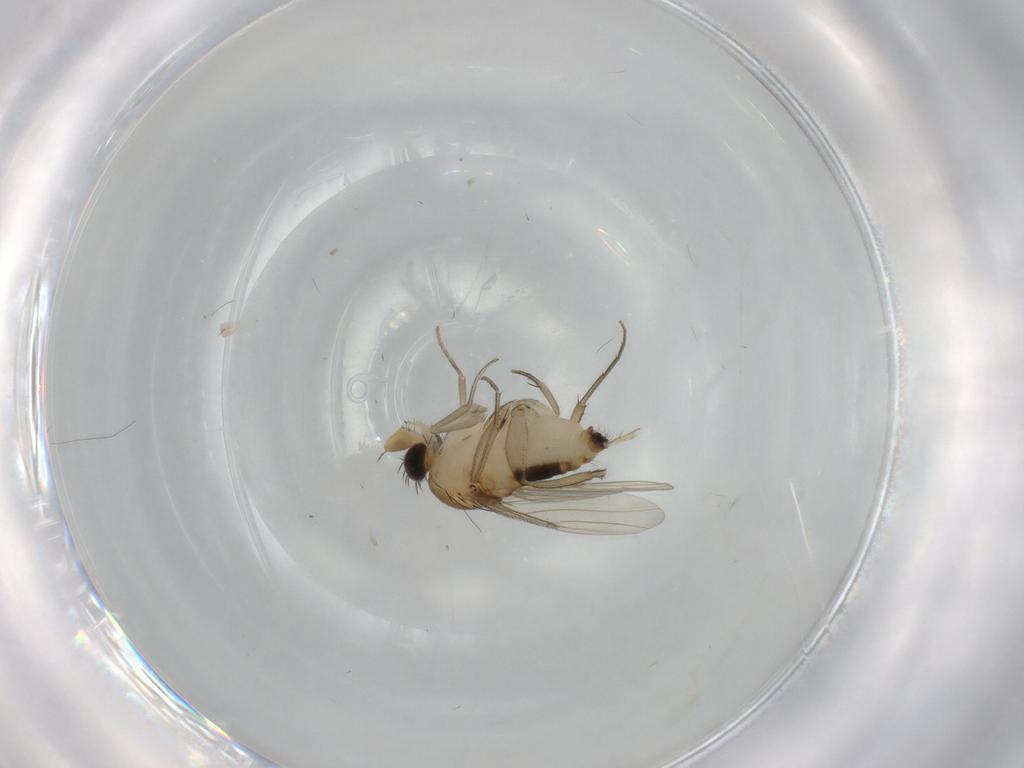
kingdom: Animalia
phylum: Arthropoda
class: Insecta
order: Diptera
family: Phoridae
